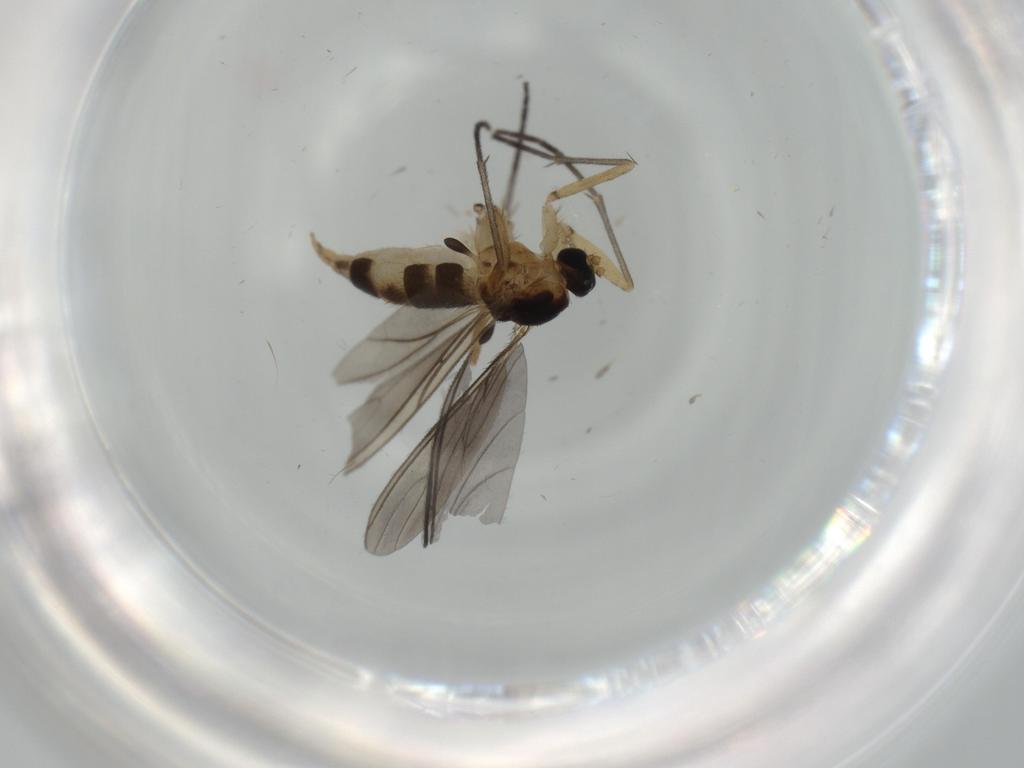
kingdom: Animalia
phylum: Arthropoda
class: Insecta
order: Diptera
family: Sciaridae
